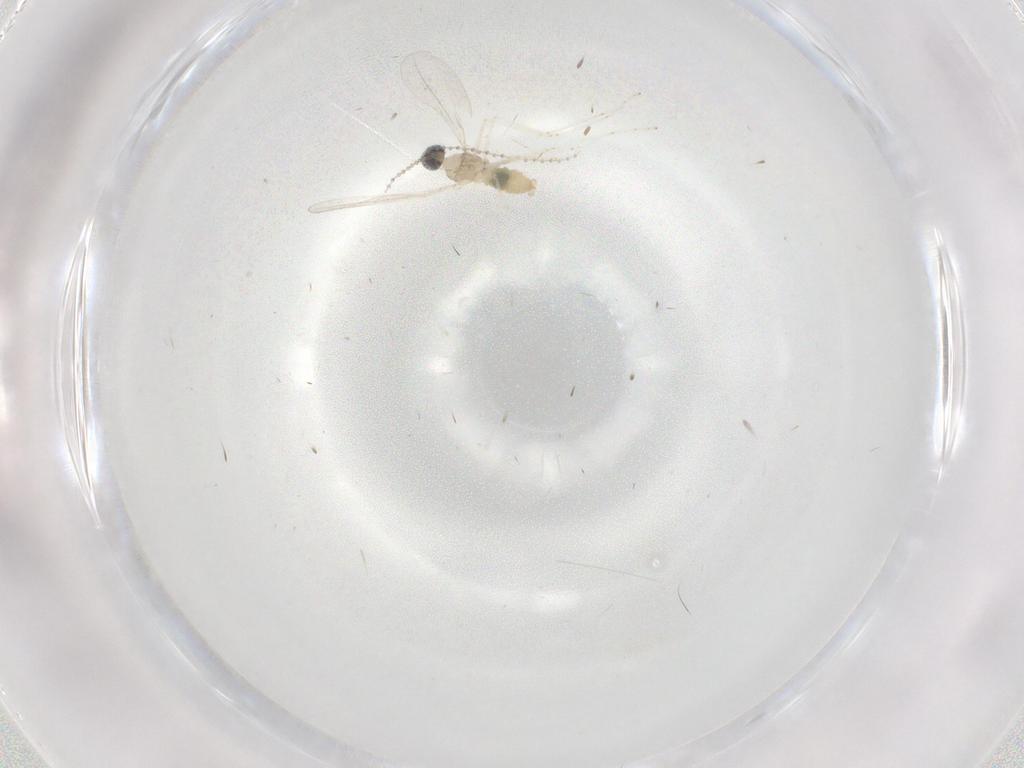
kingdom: Animalia
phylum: Arthropoda
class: Insecta
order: Diptera
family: Cecidomyiidae
